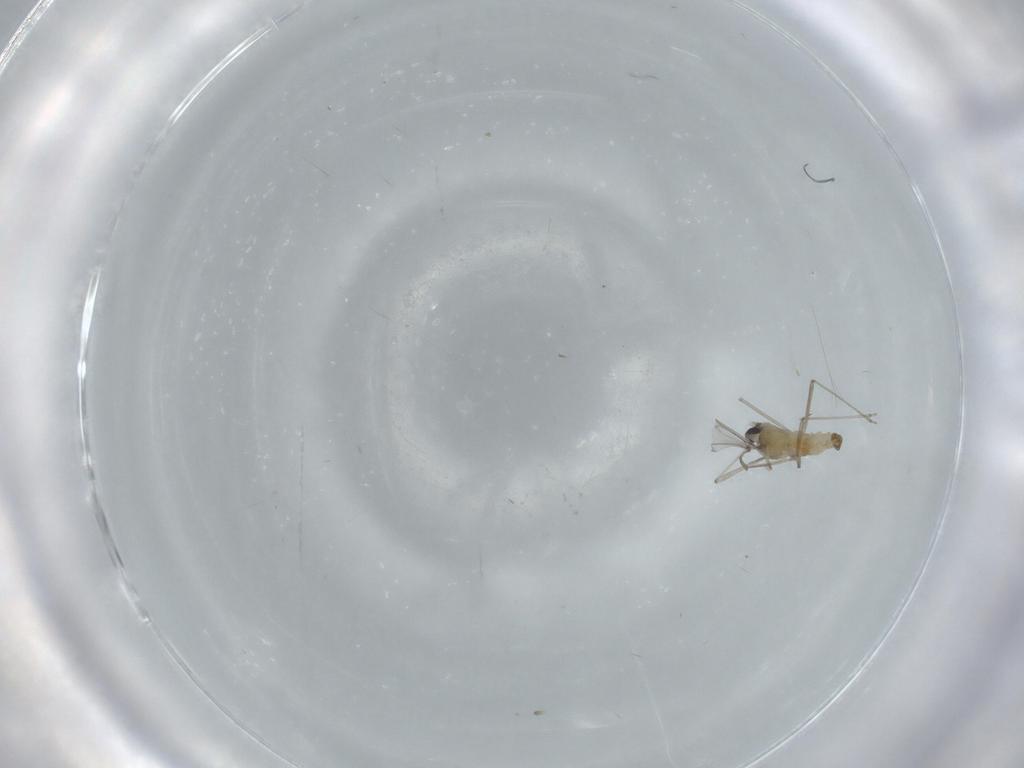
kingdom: Animalia
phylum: Arthropoda
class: Insecta
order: Diptera
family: Cecidomyiidae
